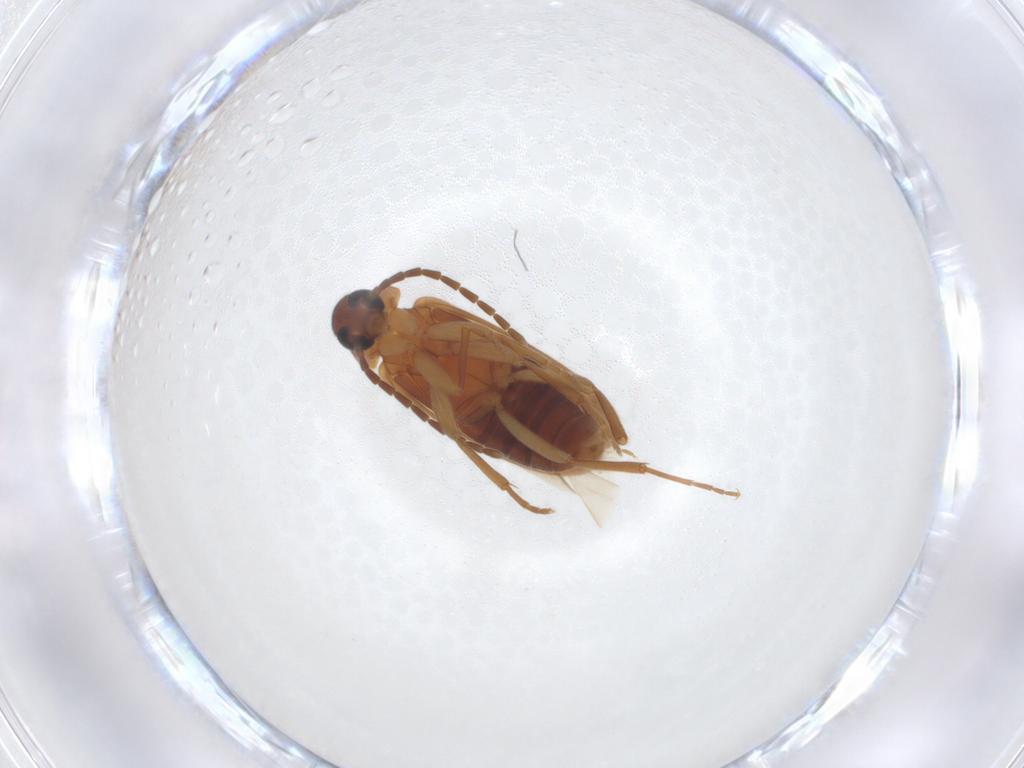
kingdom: Animalia
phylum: Arthropoda
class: Insecta
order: Coleoptera
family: Scraptiidae
